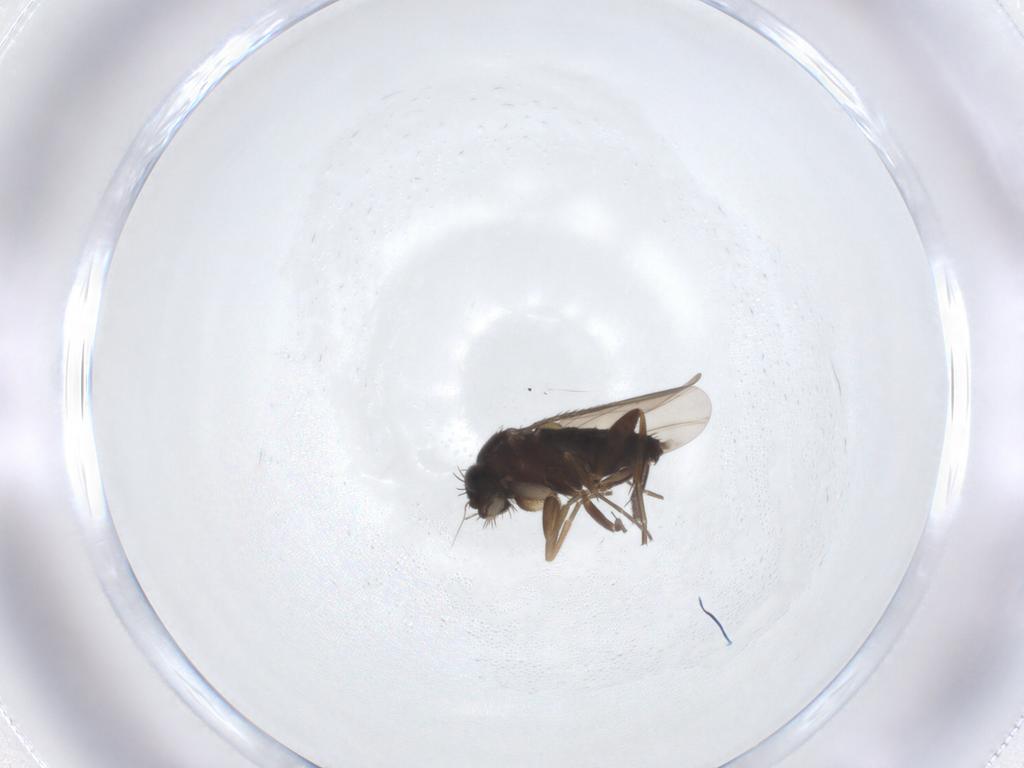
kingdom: Animalia
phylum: Arthropoda
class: Insecta
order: Diptera
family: Phoridae
